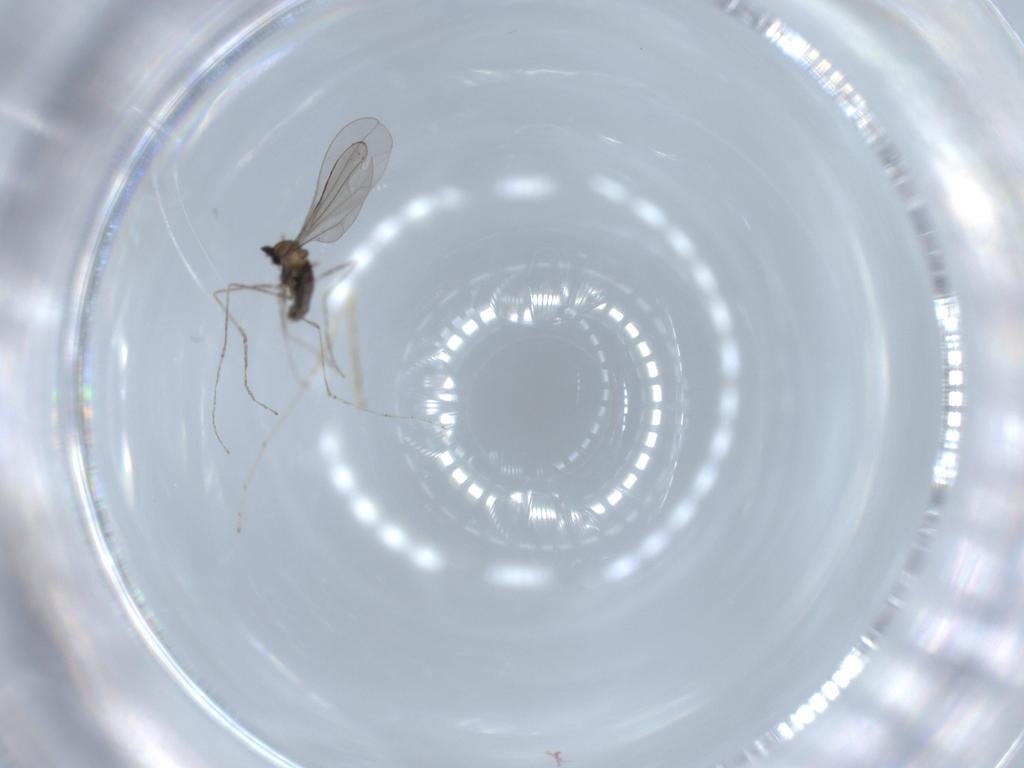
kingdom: Animalia
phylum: Arthropoda
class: Insecta
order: Diptera
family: Cecidomyiidae
